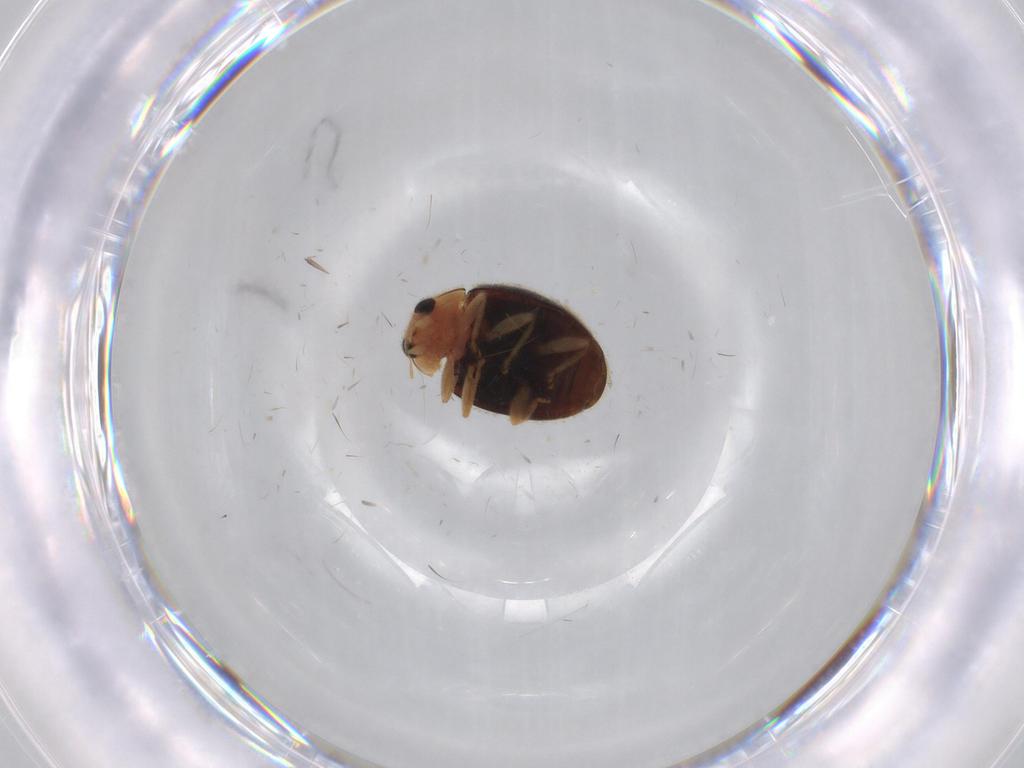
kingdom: Animalia
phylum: Arthropoda
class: Insecta
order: Coleoptera
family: Coccinellidae
